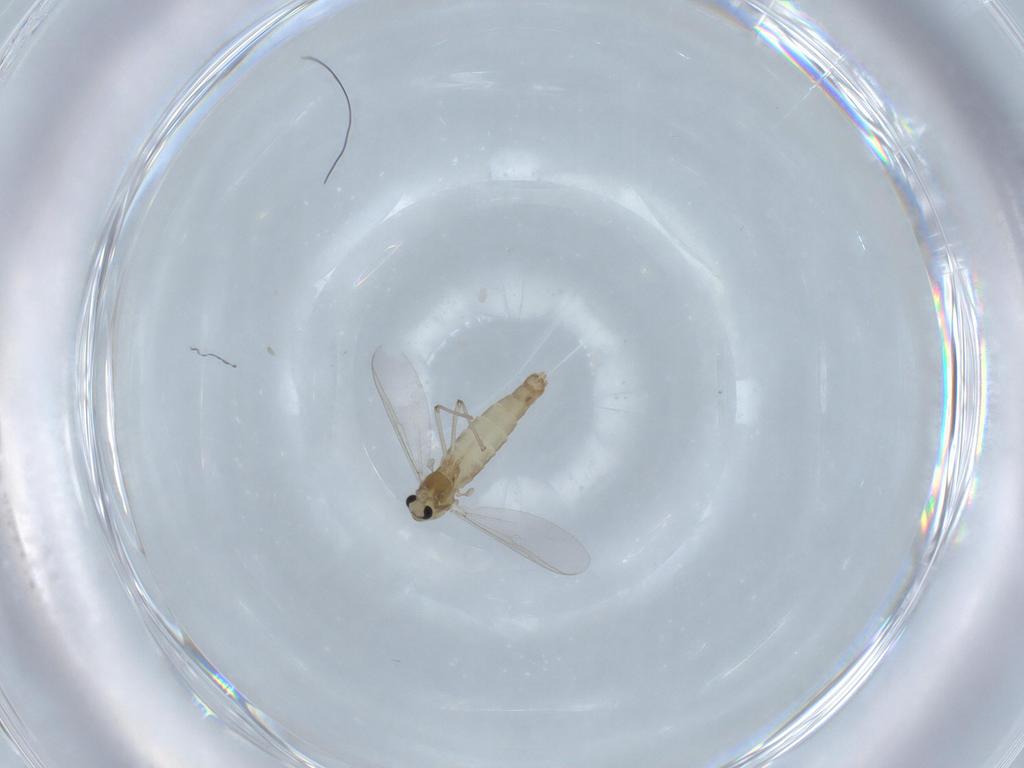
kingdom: Animalia
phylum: Arthropoda
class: Insecta
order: Diptera
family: Chironomidae
